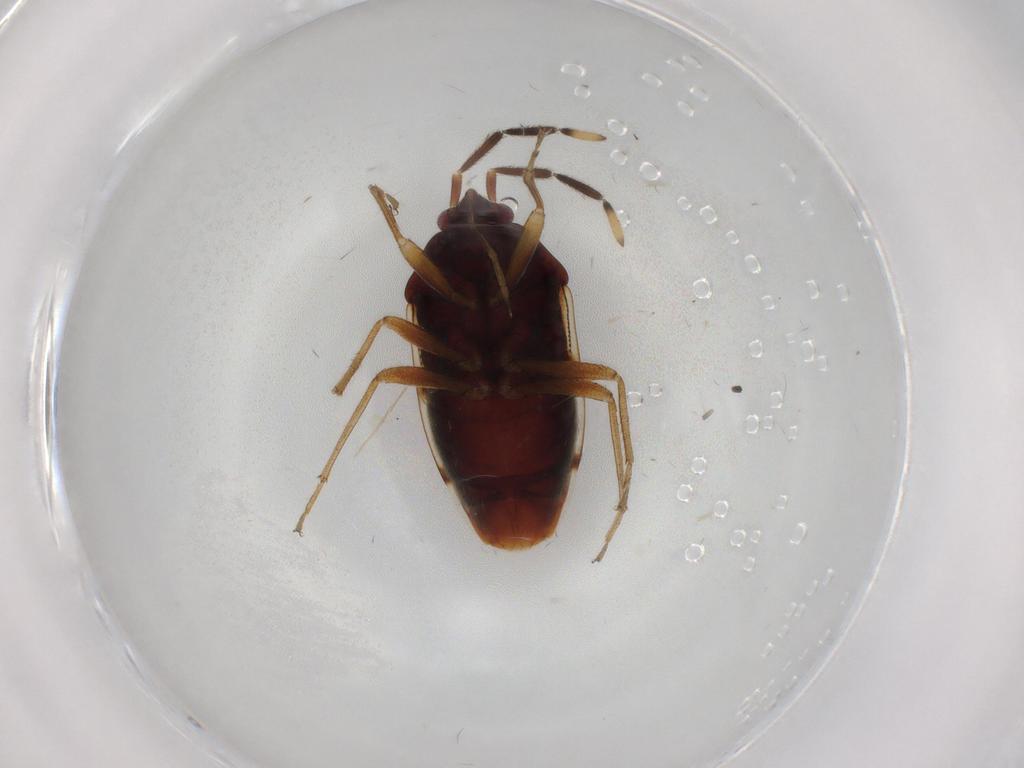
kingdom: Animalia
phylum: Arthropoda
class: Insecta
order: Hemiptera
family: Rhyparochromidae
